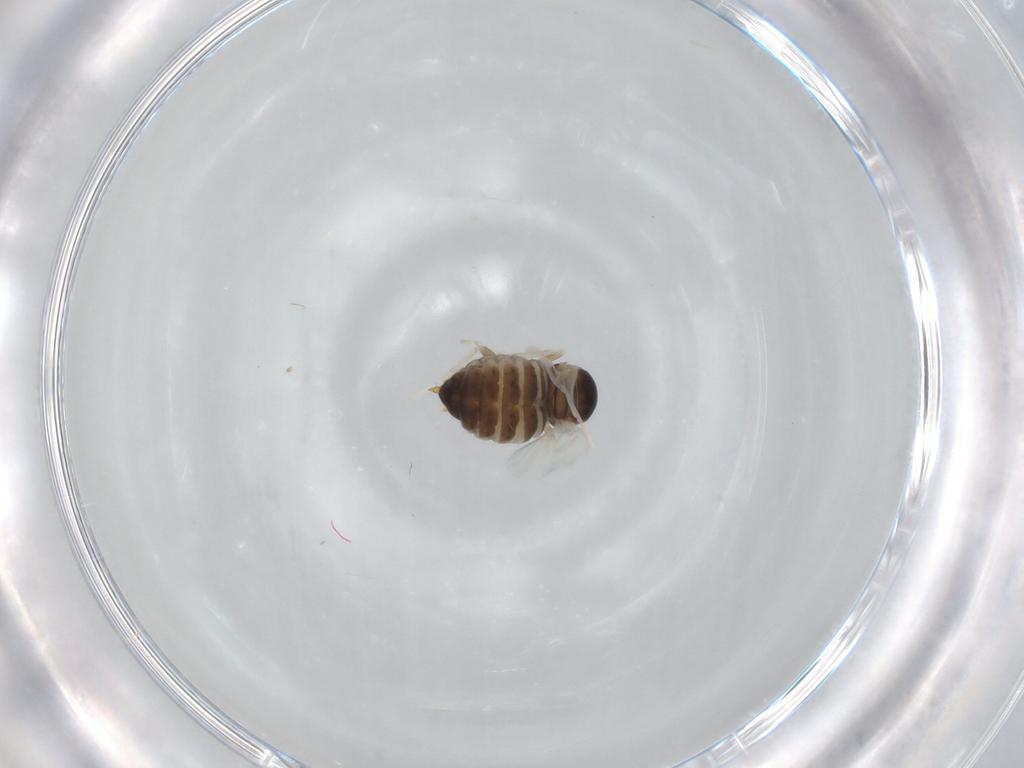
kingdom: Animalia
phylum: Arthropoda
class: Insecta
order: Diptera
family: Cecidomyiidae
